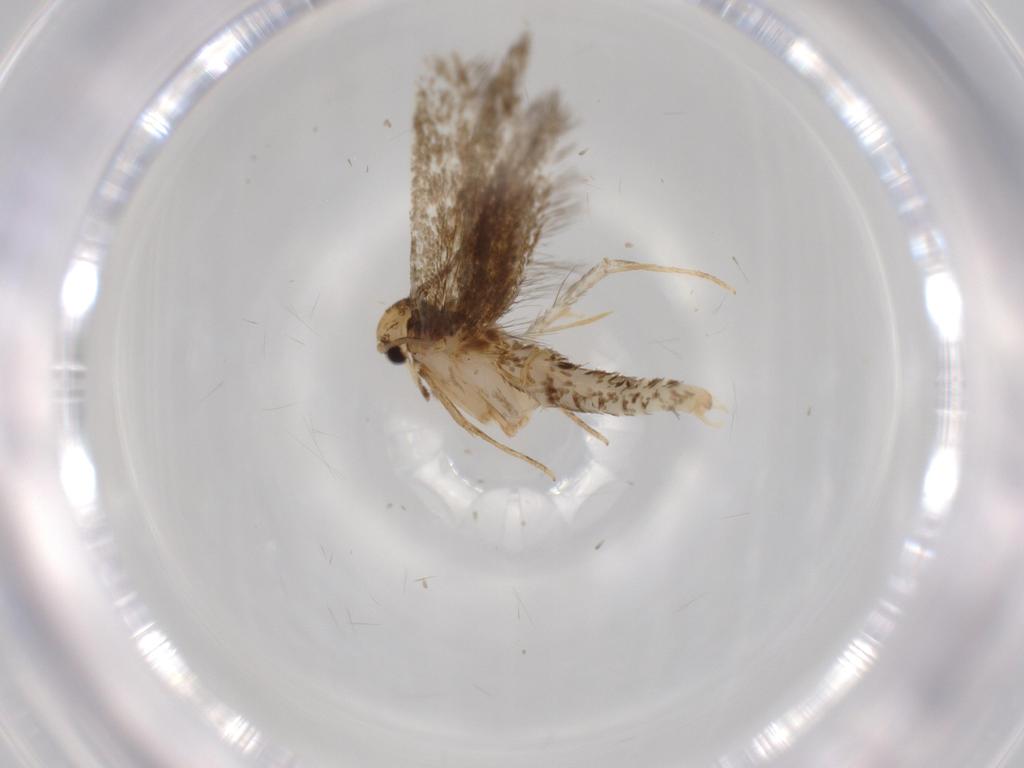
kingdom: Animalia
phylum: Arthropoda
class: Insecta
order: Lepidoptera
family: Tineidae
